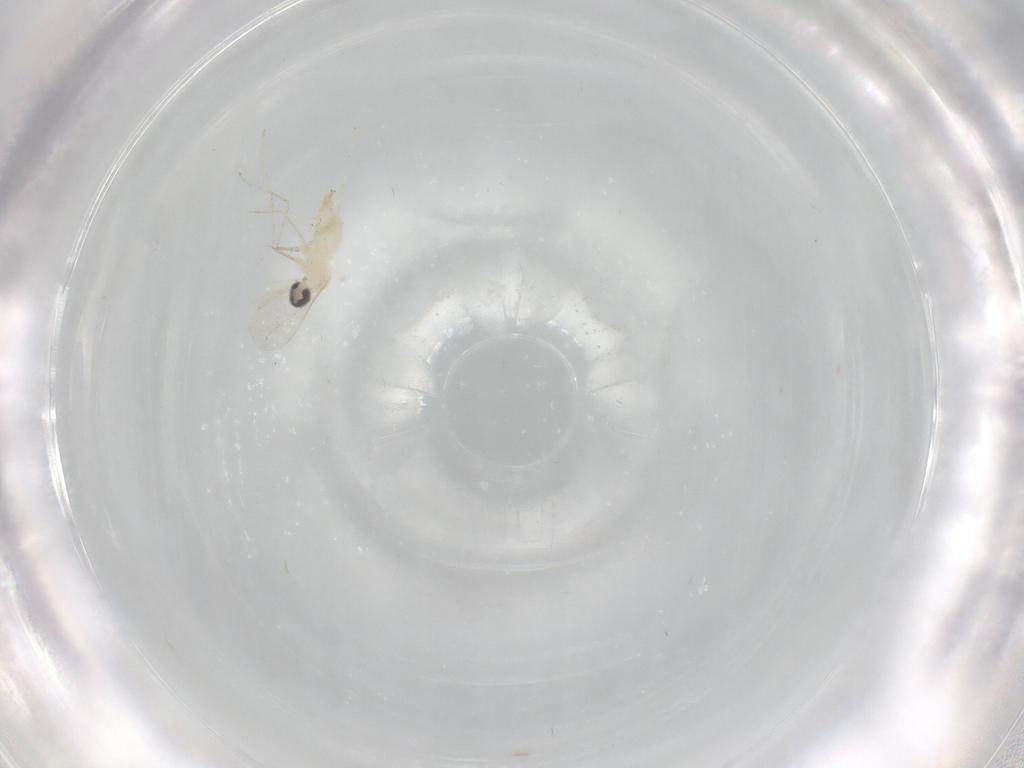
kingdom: Animalia
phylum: Arthropoda
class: Insecta
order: Diptera
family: Cecidomyiidae
